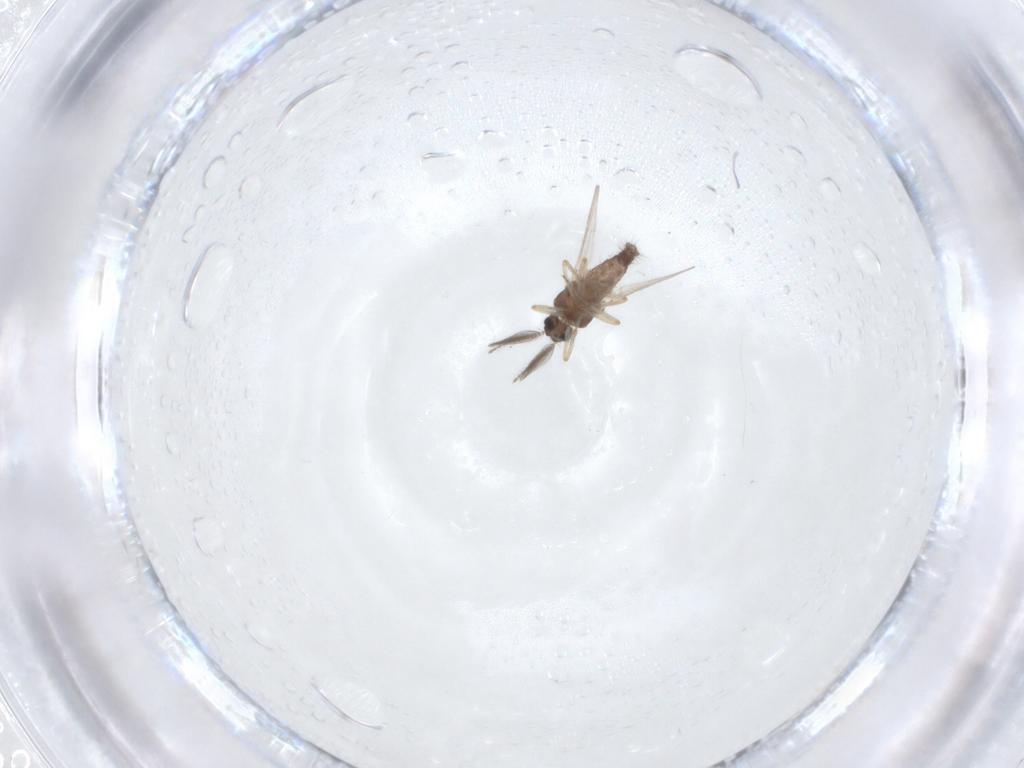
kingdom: Animalia
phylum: Arthropoda
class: Insecta
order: Diptera
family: Ceratopogonidae
